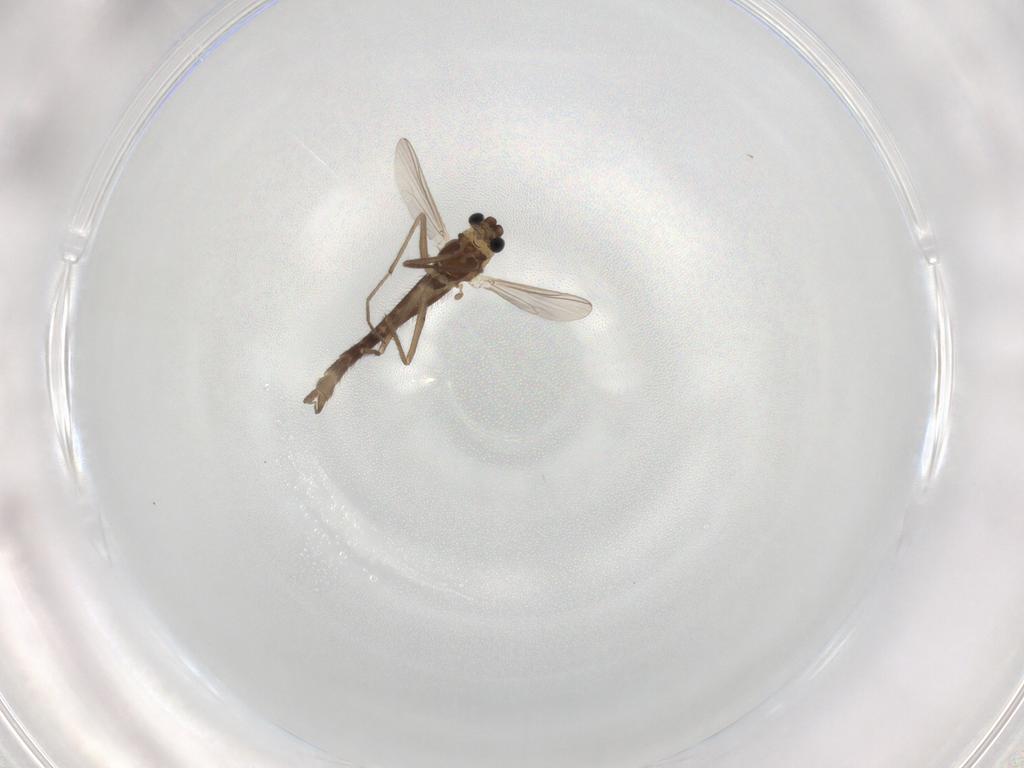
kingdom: Animalia
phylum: Arthropoda
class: Insecta
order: Diptera
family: Chironomidae
